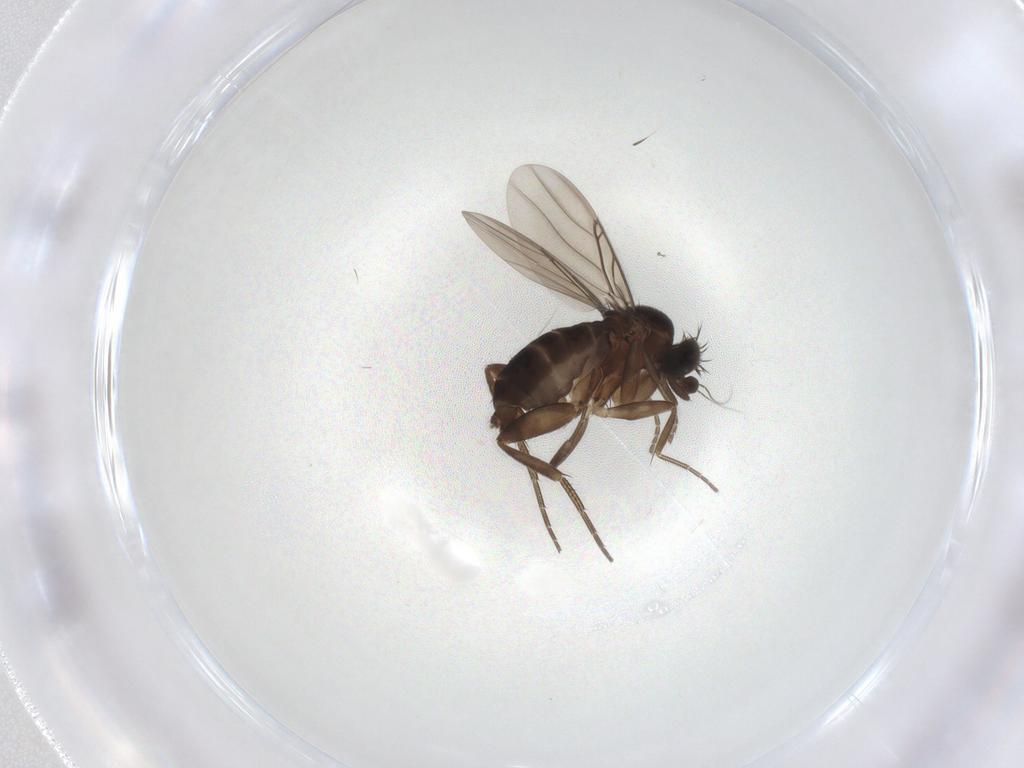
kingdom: Animalia
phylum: Arthropoda
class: Insecta
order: Diptera
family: Phoridae
